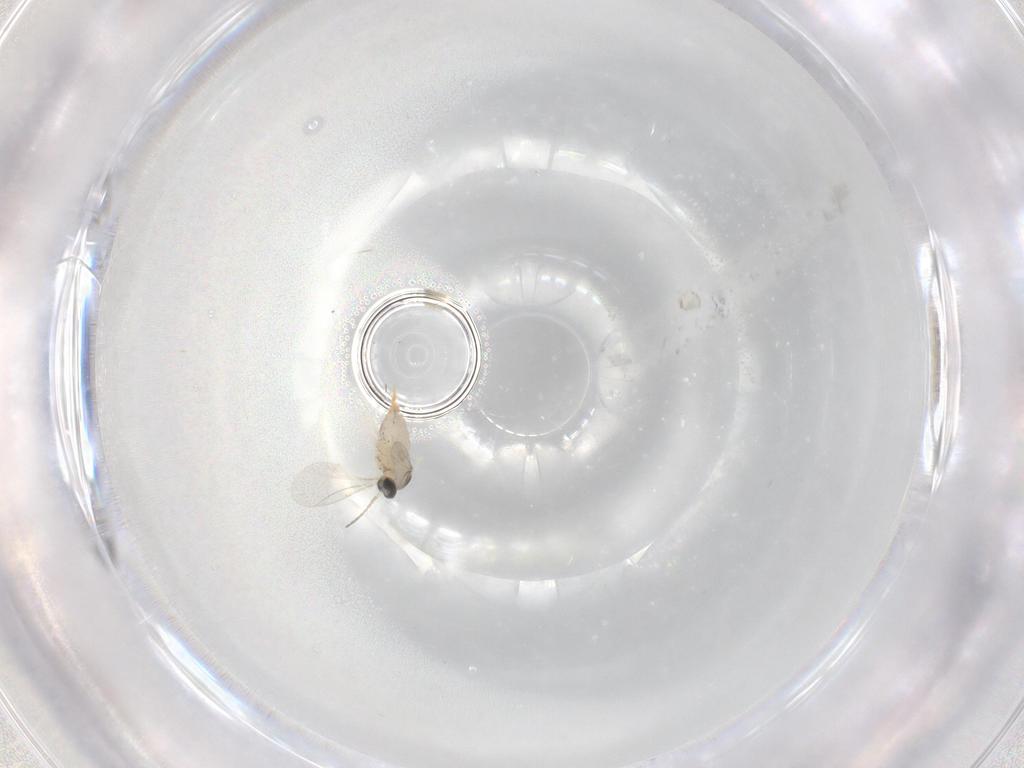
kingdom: Animalia
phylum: Arthropoda
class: Insecta
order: Diptera
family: Cecidomyiidae
